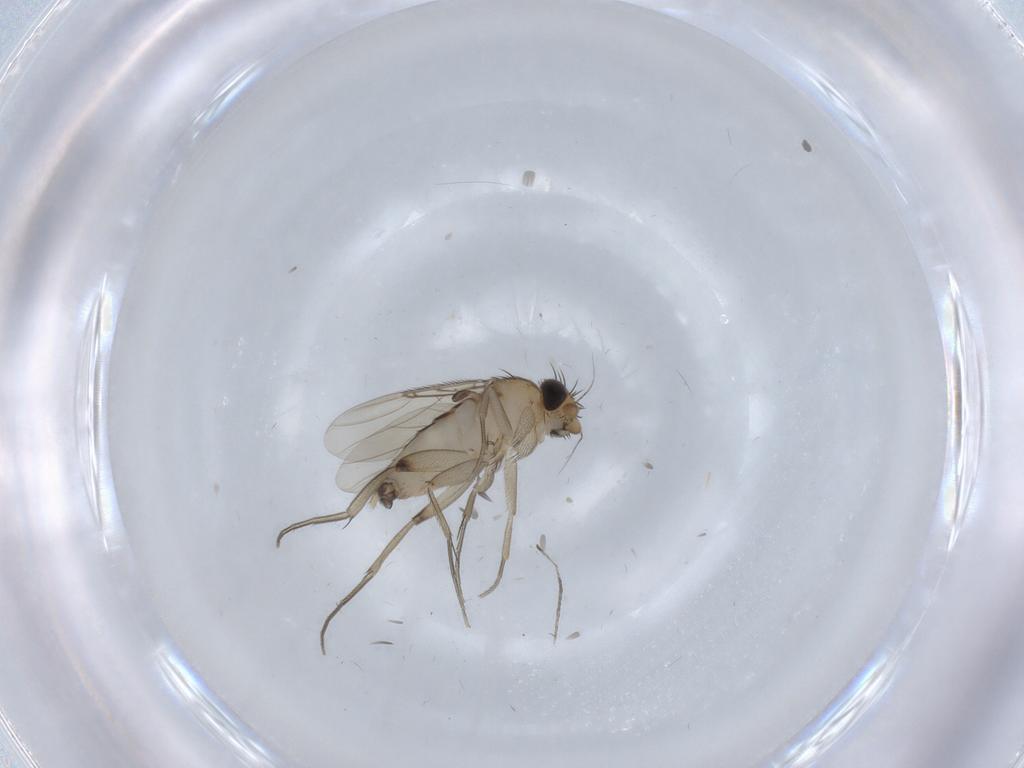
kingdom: Animalia
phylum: Arthropoda
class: Insecta
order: Diptera
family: Phoridae
